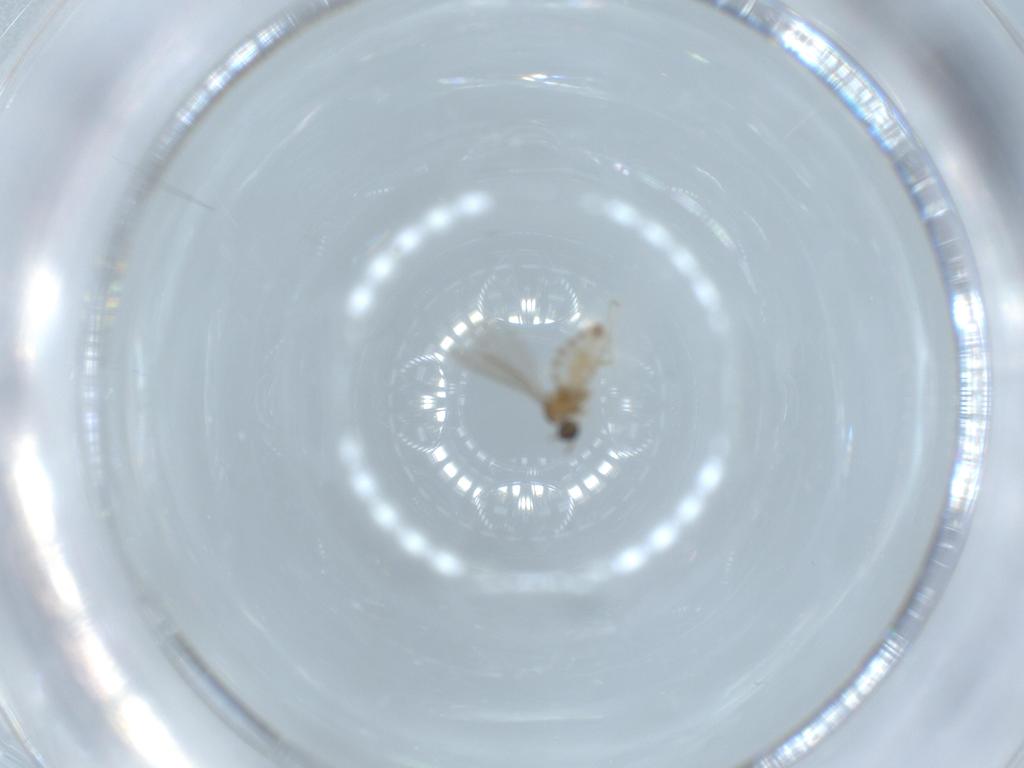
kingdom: Animalia
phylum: Arthropoda
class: Insecta
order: Diptera
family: Cecidomyiidae
